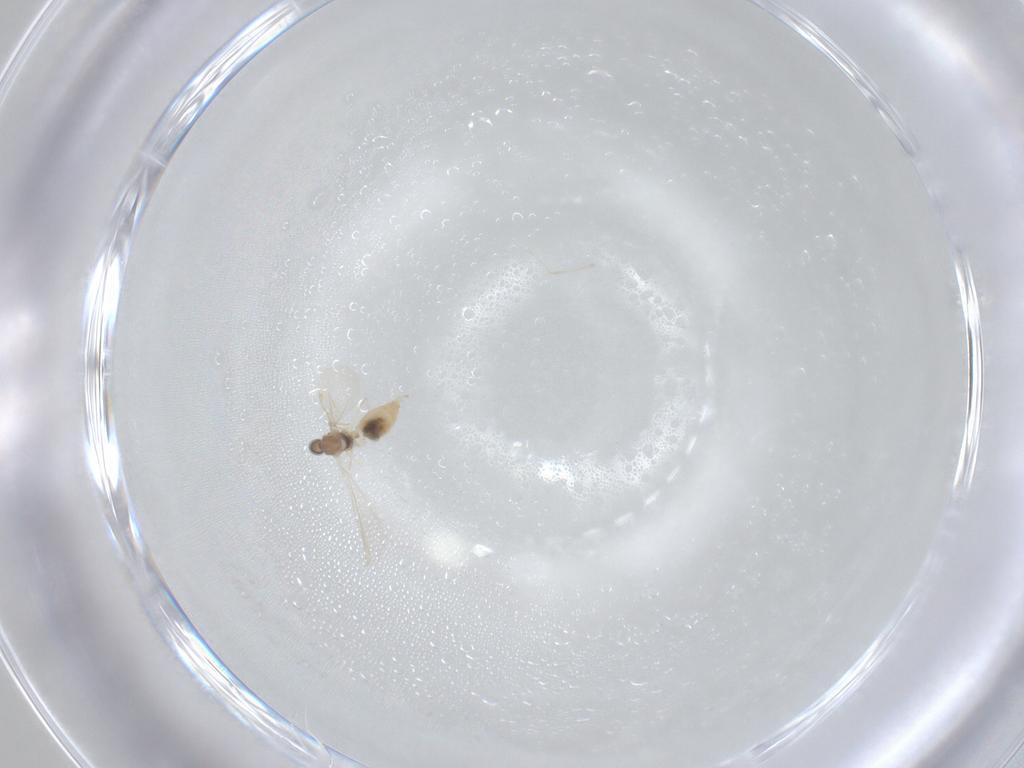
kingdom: Animalia
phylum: Arthropoda
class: Insecta
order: Diptera
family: Cecidomyiidae
